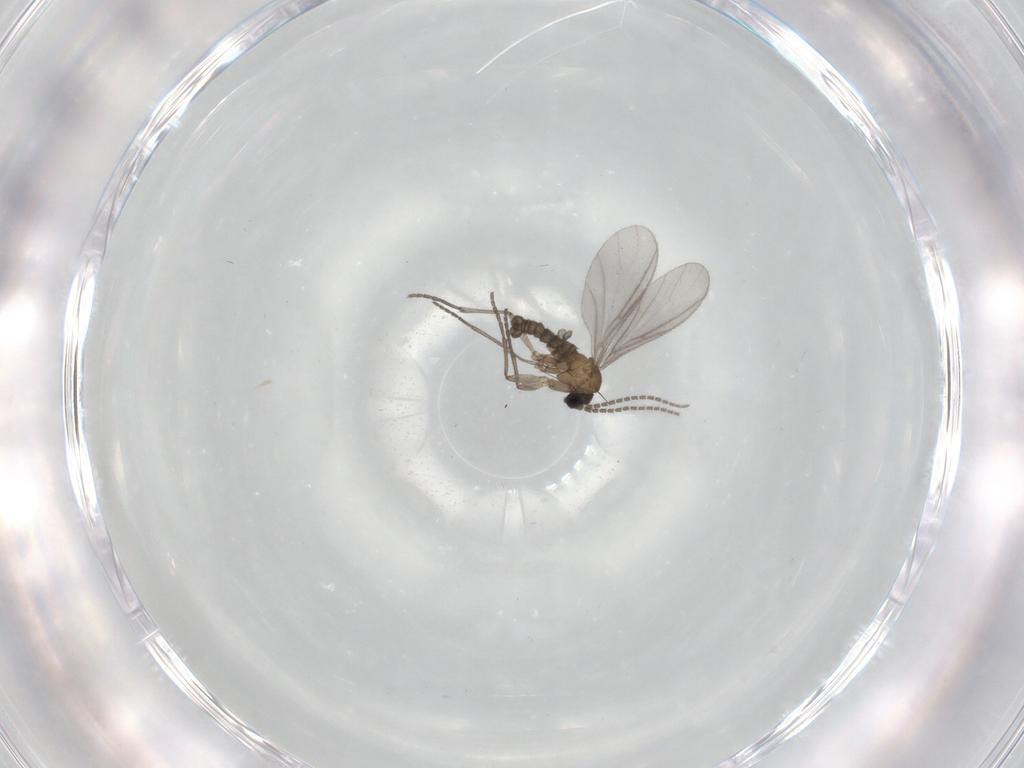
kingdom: Animalia
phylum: Arthropoda
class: Insecta
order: Diptera
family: Sciaridae
